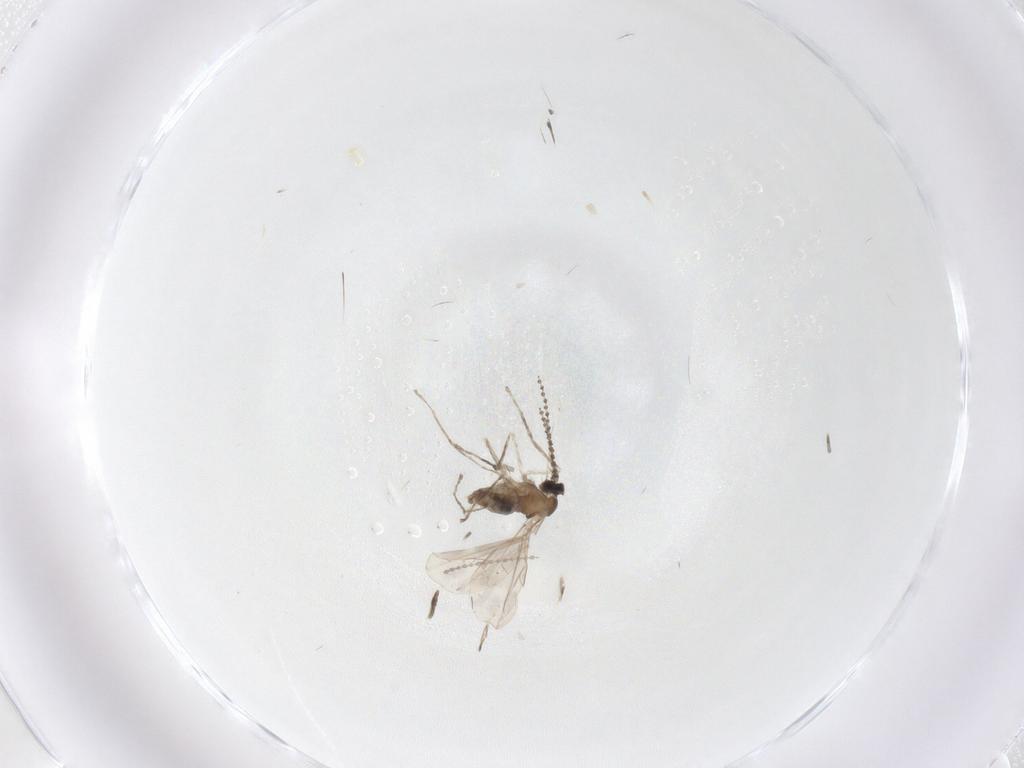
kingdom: Animalia
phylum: Arthropoda
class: Insecta
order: Diptera
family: Cecidomyiidae
